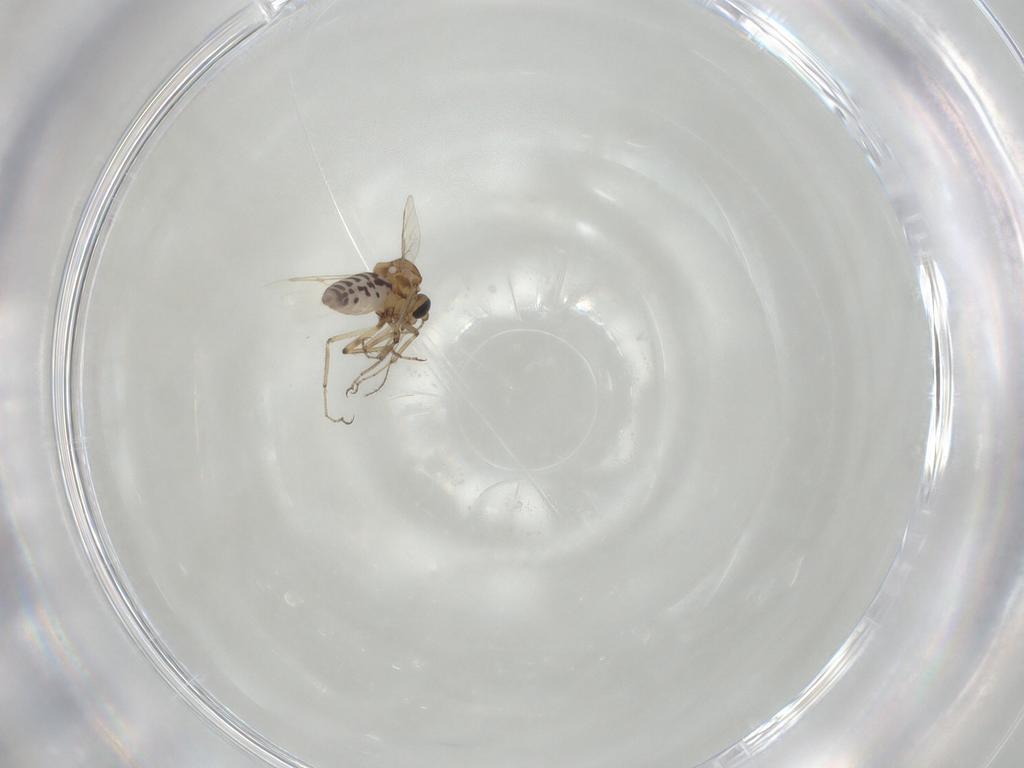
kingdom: Animalia
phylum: Arthropoda
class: Insecta
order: Diptera
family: Ceratopogonidae
